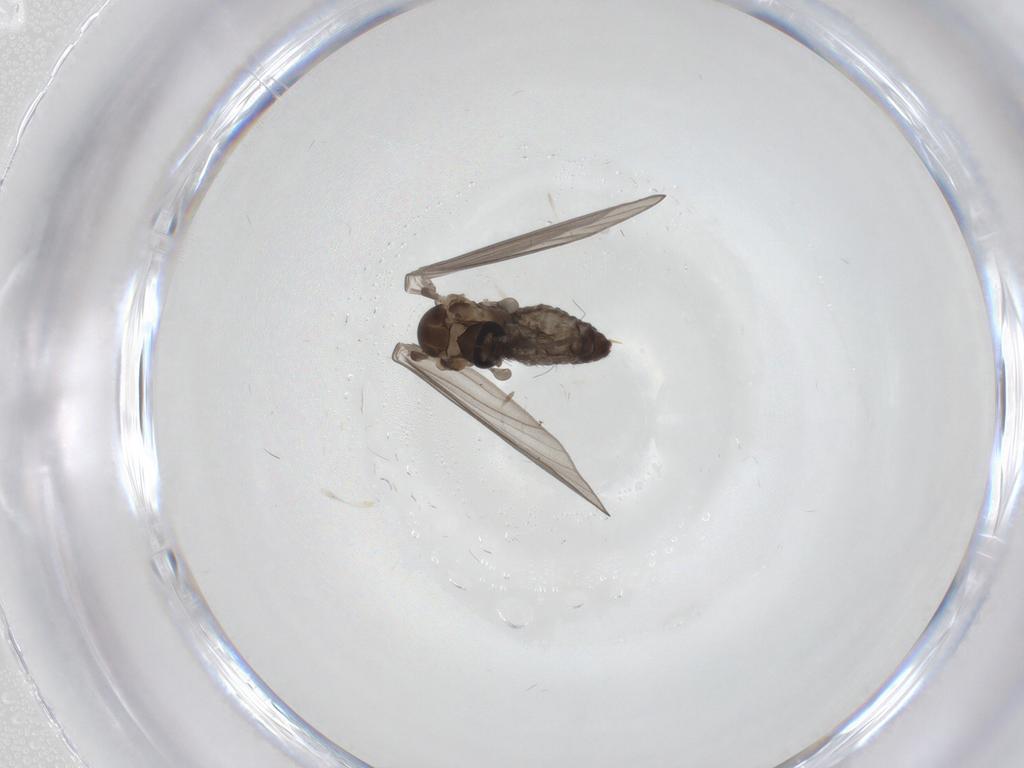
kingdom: Animalia
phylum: Arthropoda
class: Insecta
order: Diptera
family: Psychodidae
